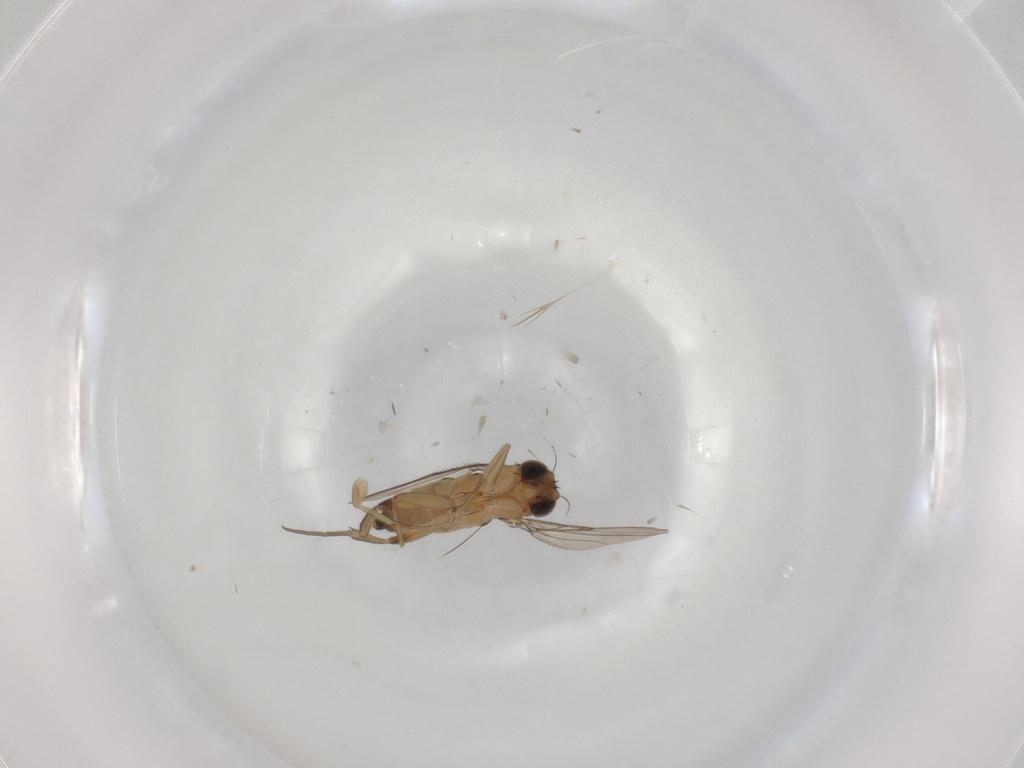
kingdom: Animalia
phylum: Arthropoda
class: Insecta
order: Diptera
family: Phoridae
